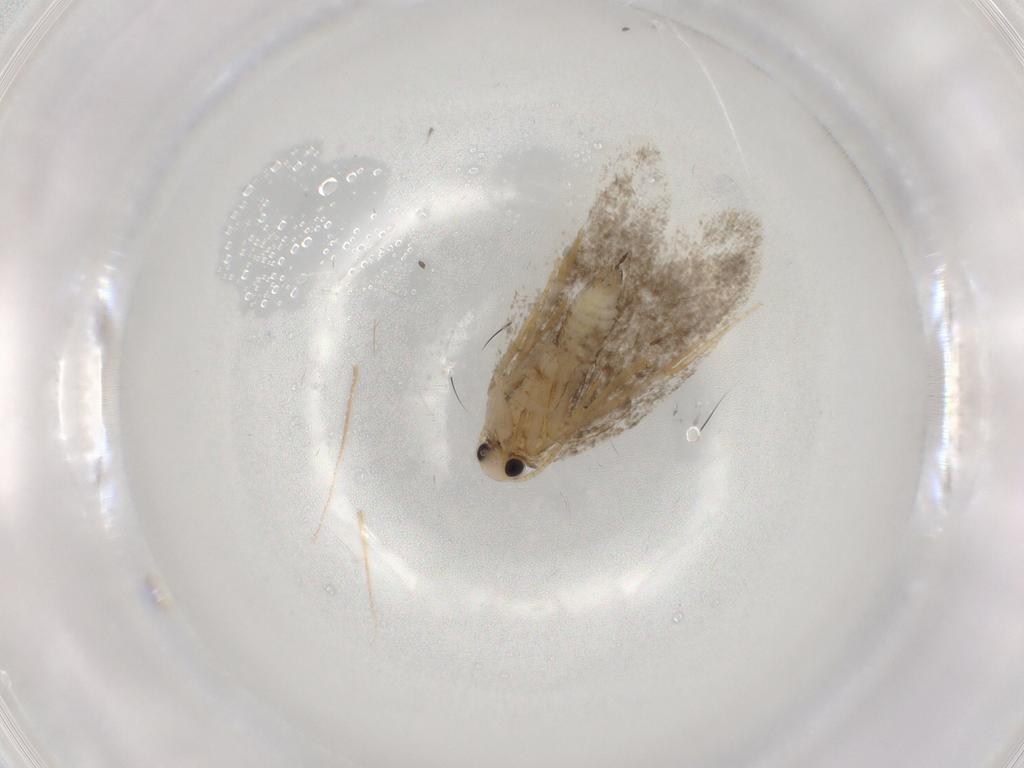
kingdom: Animalia
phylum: Arthropoda
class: Insecta
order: Lepidoptera
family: Psychidae
